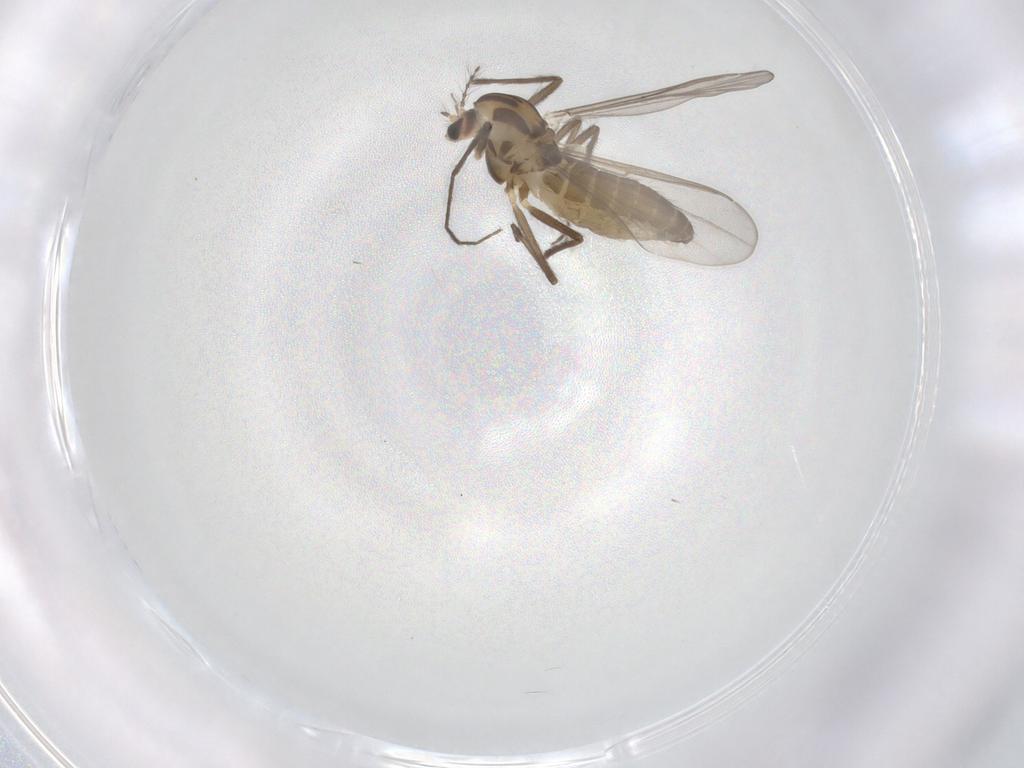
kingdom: Animalia
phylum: Arthropoda
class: Insecta
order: Diptera
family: Chironomidae
